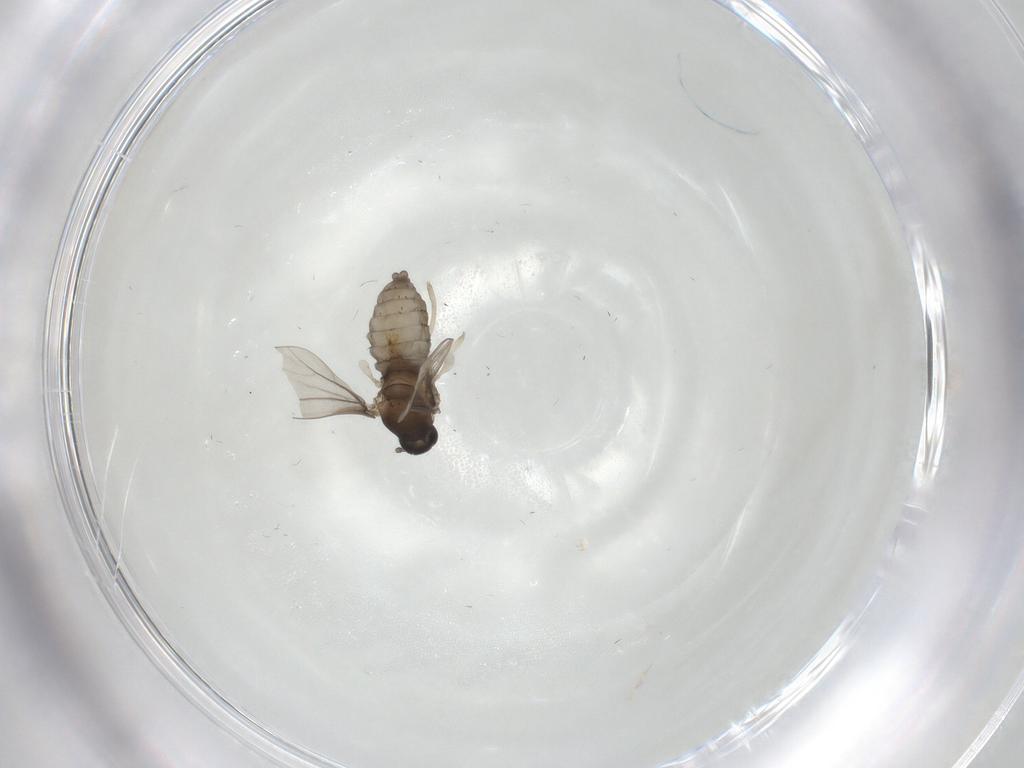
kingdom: Animalia
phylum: Arthropoda
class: Insecta
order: Diptera
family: Cecidomyiidae
